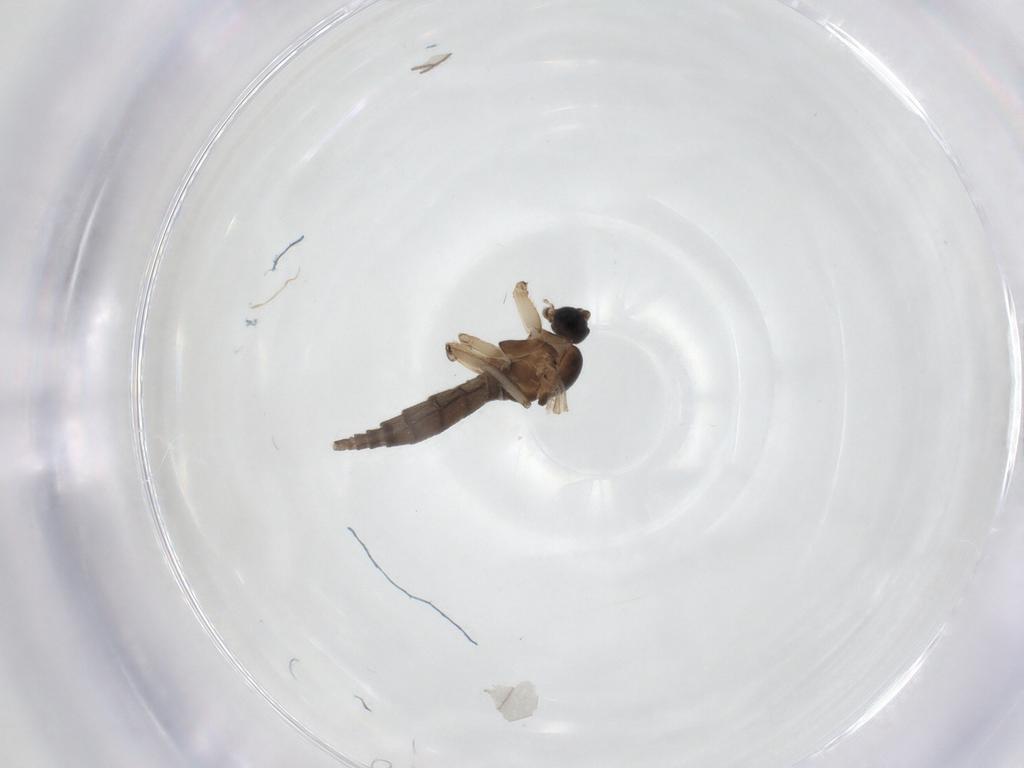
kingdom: Animalia
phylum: Arthropoda
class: Insecta
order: Diptera
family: Sciaridae
